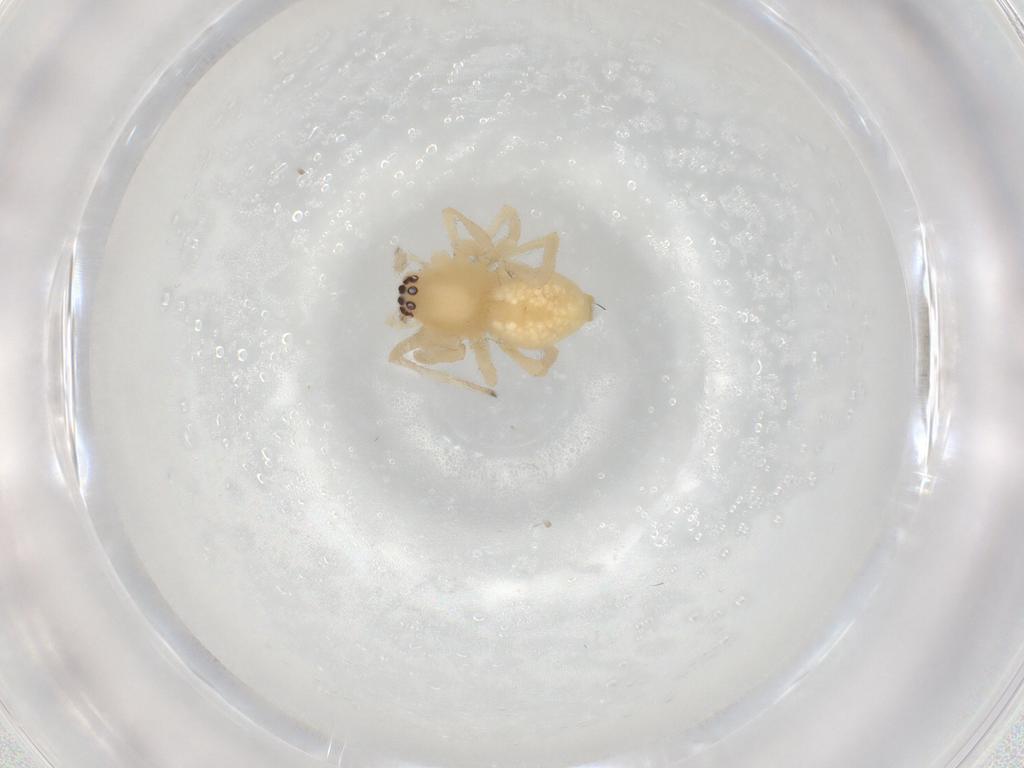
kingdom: Animalia
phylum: Arthropoda
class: Arachnida
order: Araneae
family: Cheiracanthiidae
